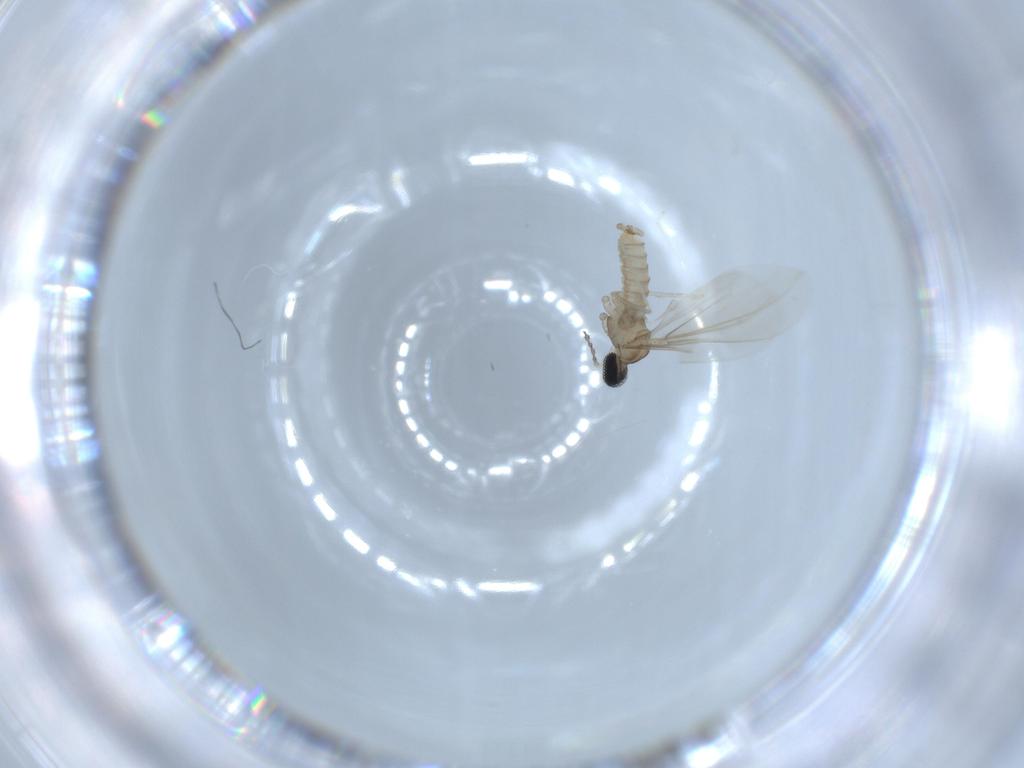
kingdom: Animalia
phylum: Arthropoda
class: Insecta
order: Diptera
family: Cecidomyiidae
